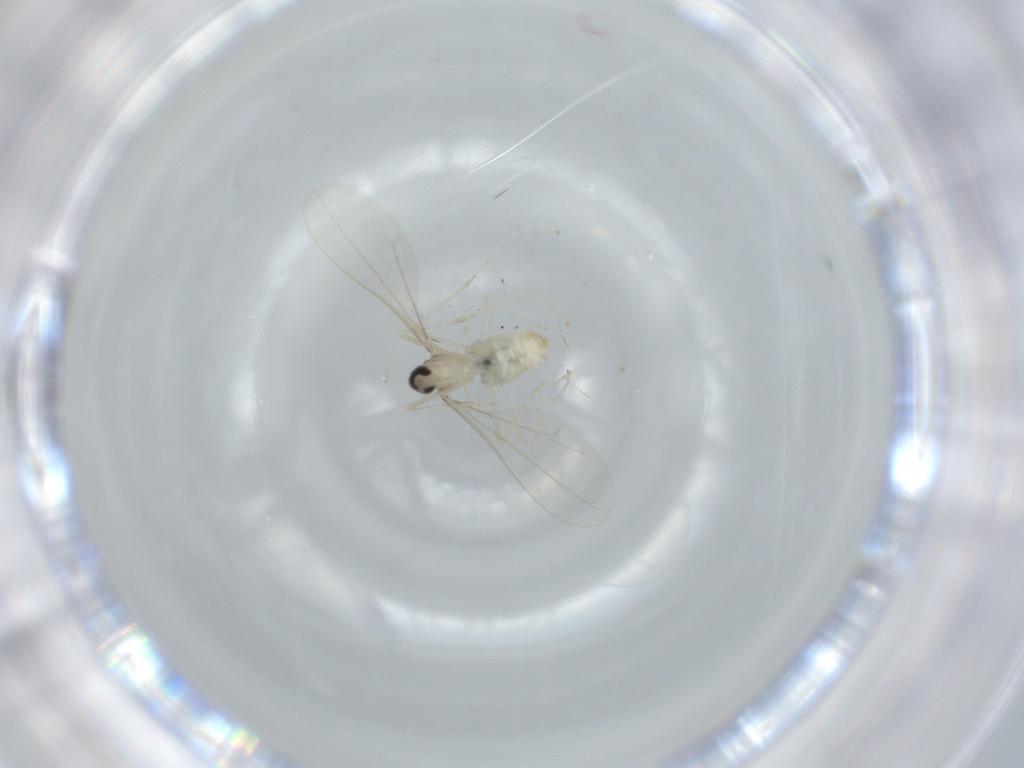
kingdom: Animalia
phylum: Arthropoda
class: Insecta
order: Diptera
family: Cecidomyiidae
